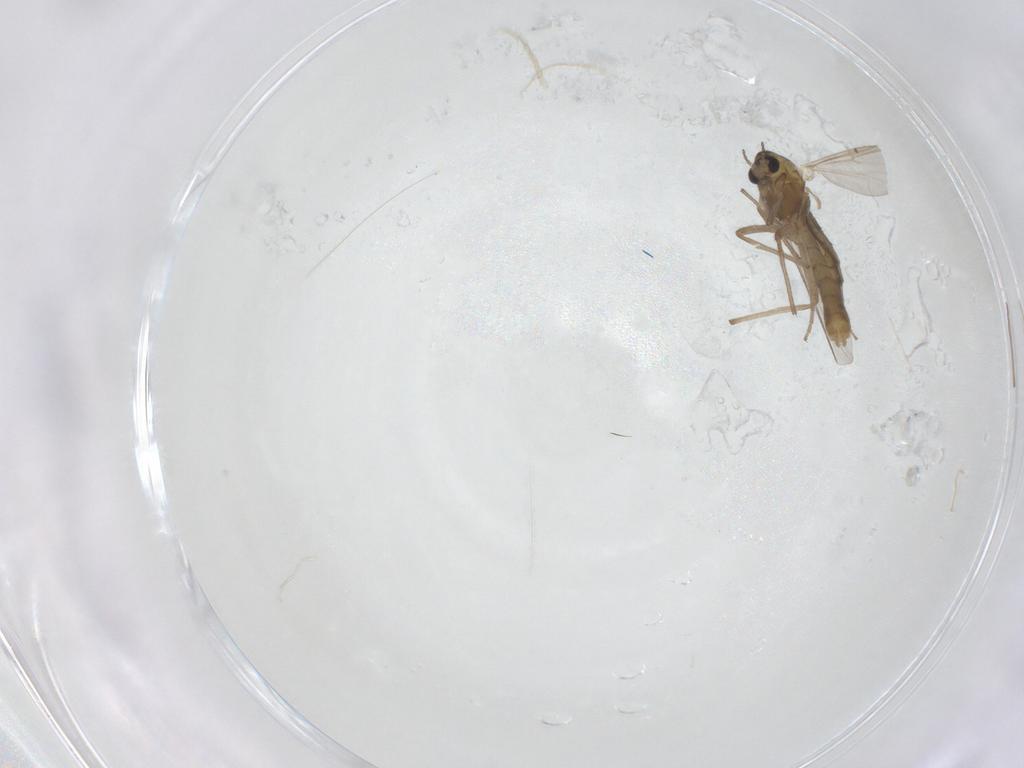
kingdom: Animalia
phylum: Arthropoda
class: Insecta
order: Diptera
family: Chironomidae
